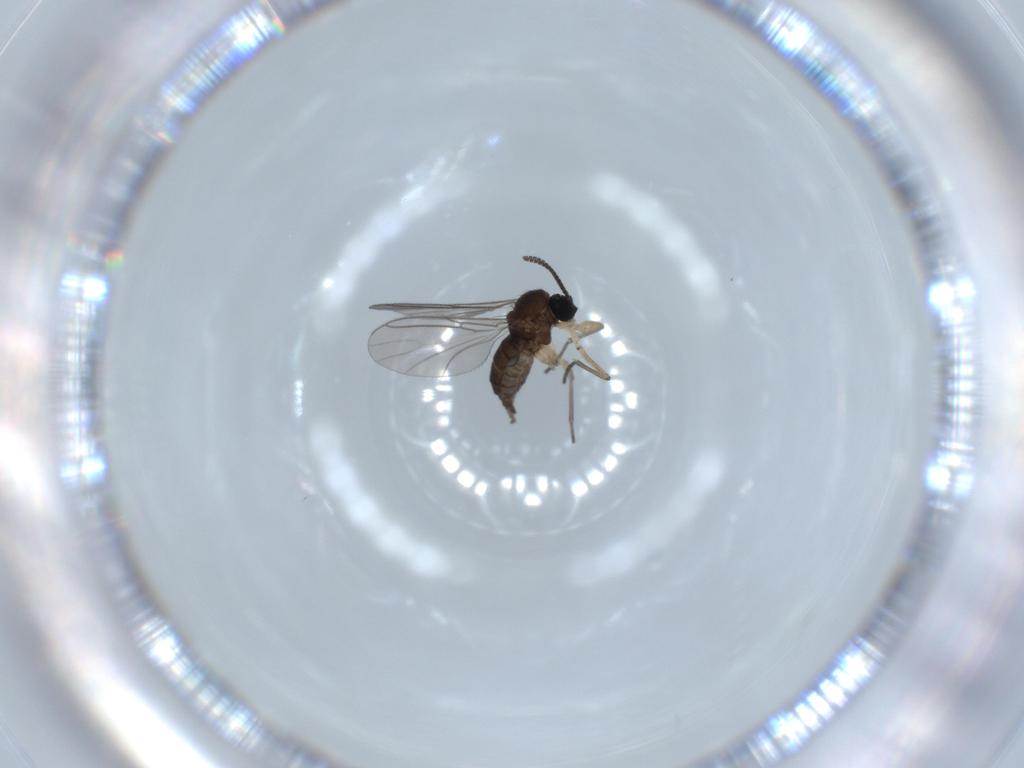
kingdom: Animalia
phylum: Arthropoda
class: Insecta
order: Diptera
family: Sciaridae
